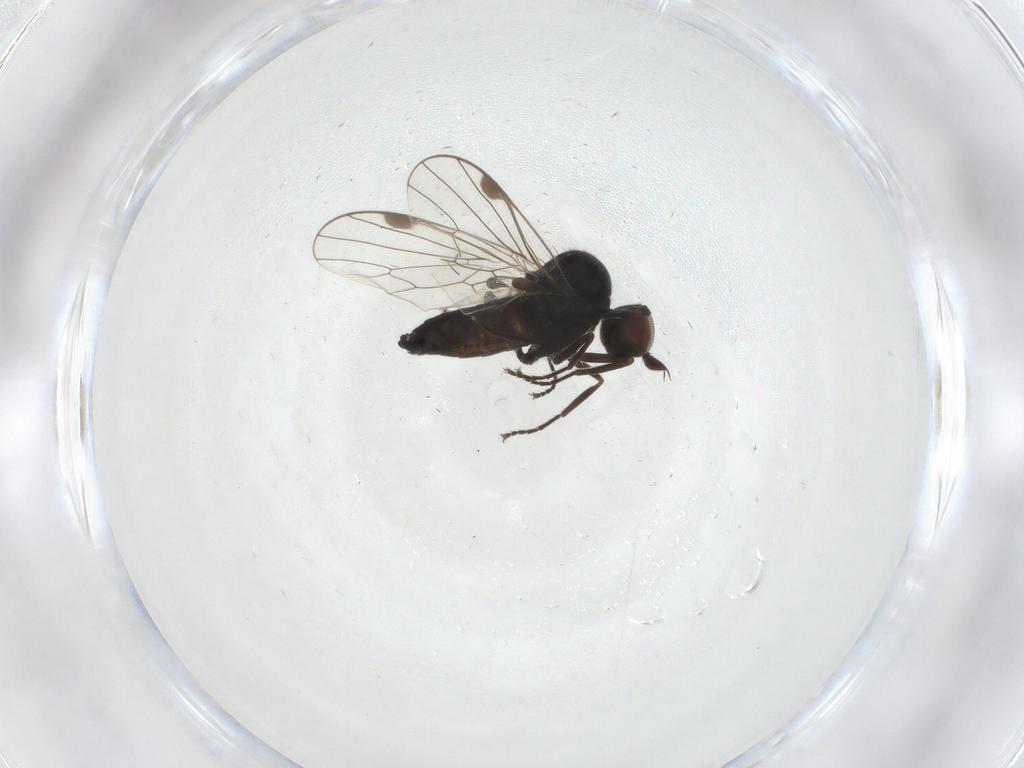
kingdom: Animalia
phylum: Arthropoda
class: Insecta
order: Diptera
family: Muscidae
